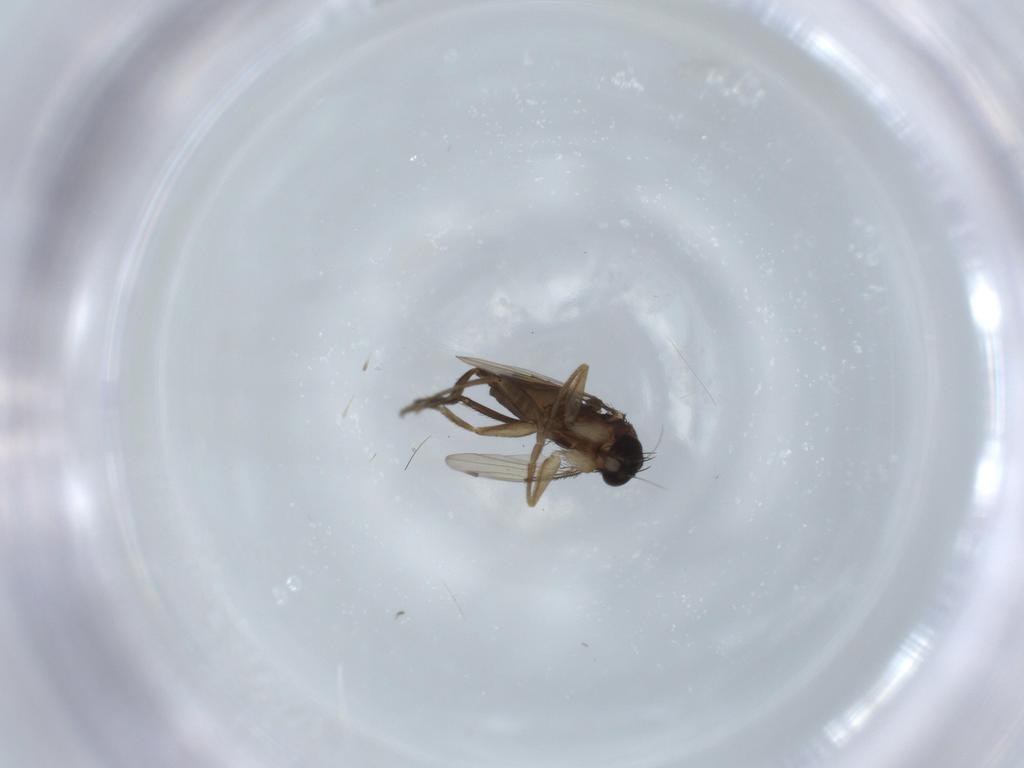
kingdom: Animalia
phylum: Arthropoda
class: Insecta
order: Diptera
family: Phoridae
